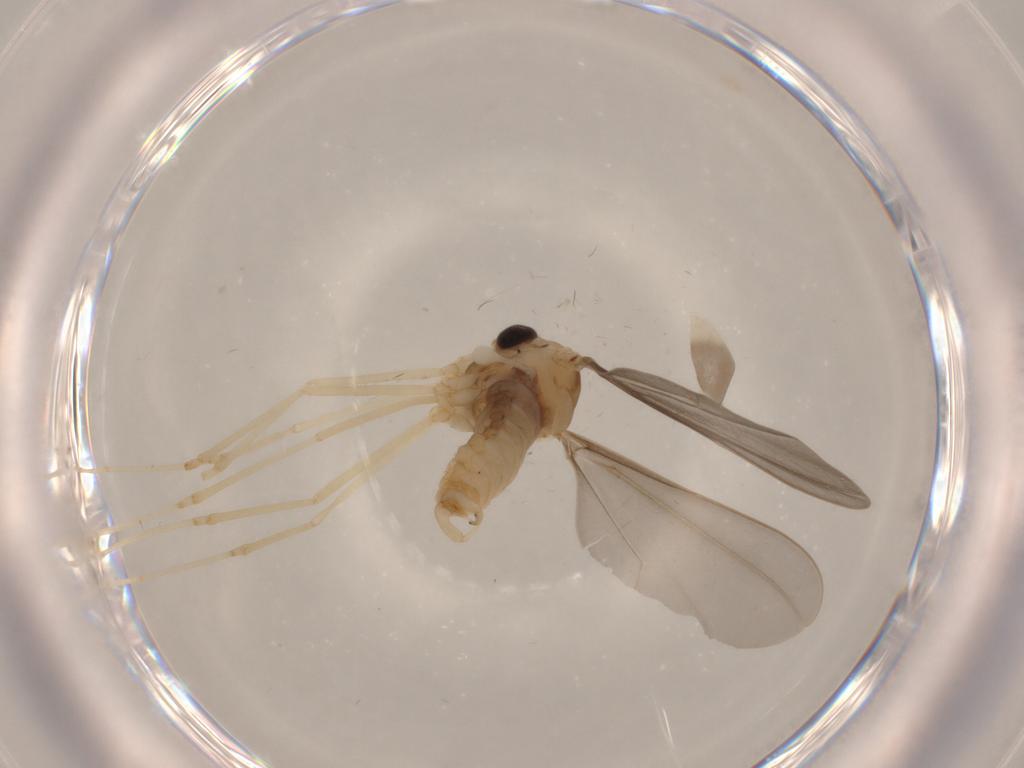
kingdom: Animalia
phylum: Arthropoda
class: Insecta
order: Diptera
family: Cecidomyiidae
